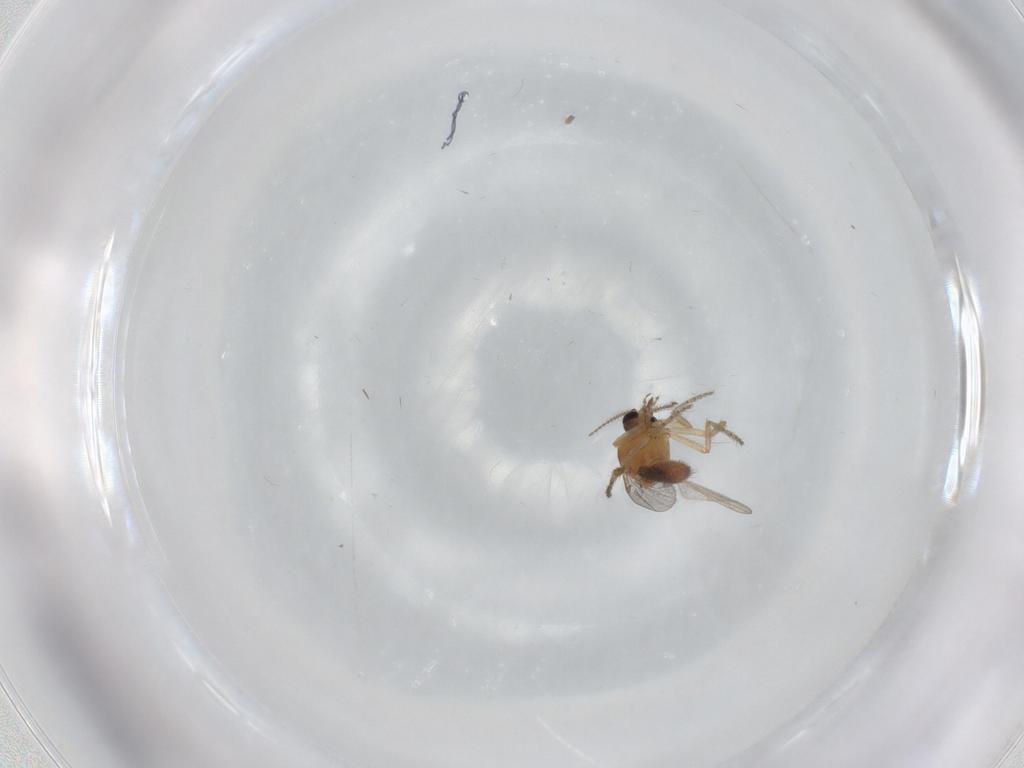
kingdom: Animalia
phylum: Arthropoda
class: Insecta
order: Diptera
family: Ceratopogonidae
